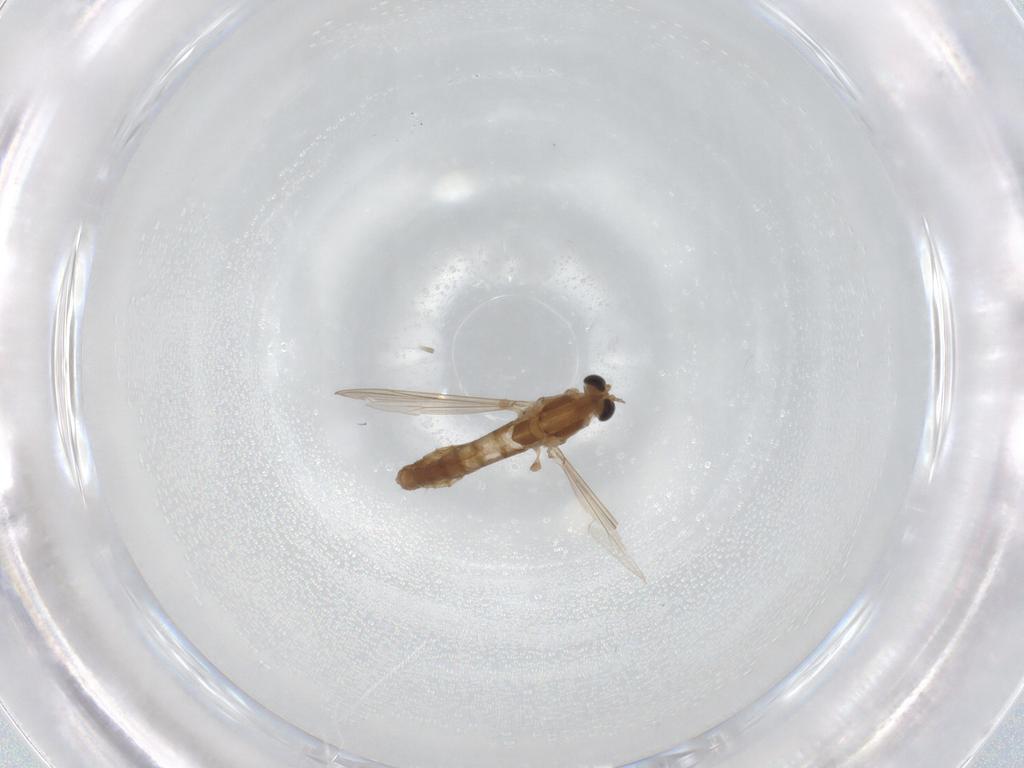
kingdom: Animalia
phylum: Arthropoda
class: Insecta
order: Diptera
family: Chironomidae
